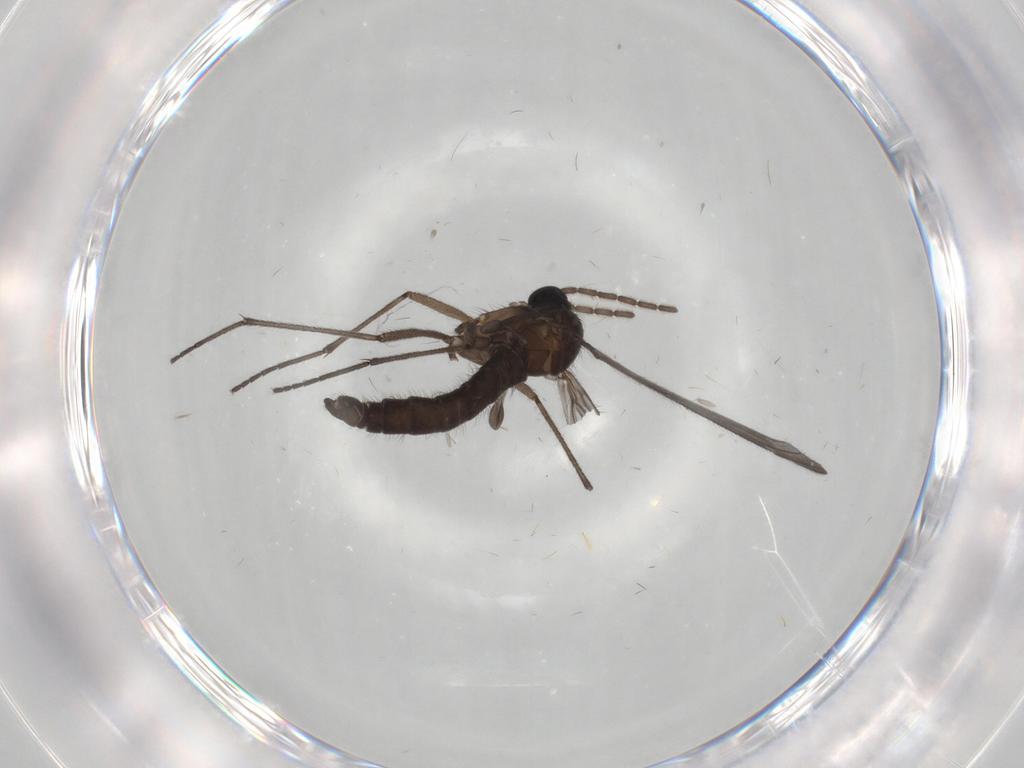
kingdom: Animalia
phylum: Arthropoda
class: Insecta
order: Diptera
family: Sciaridae
